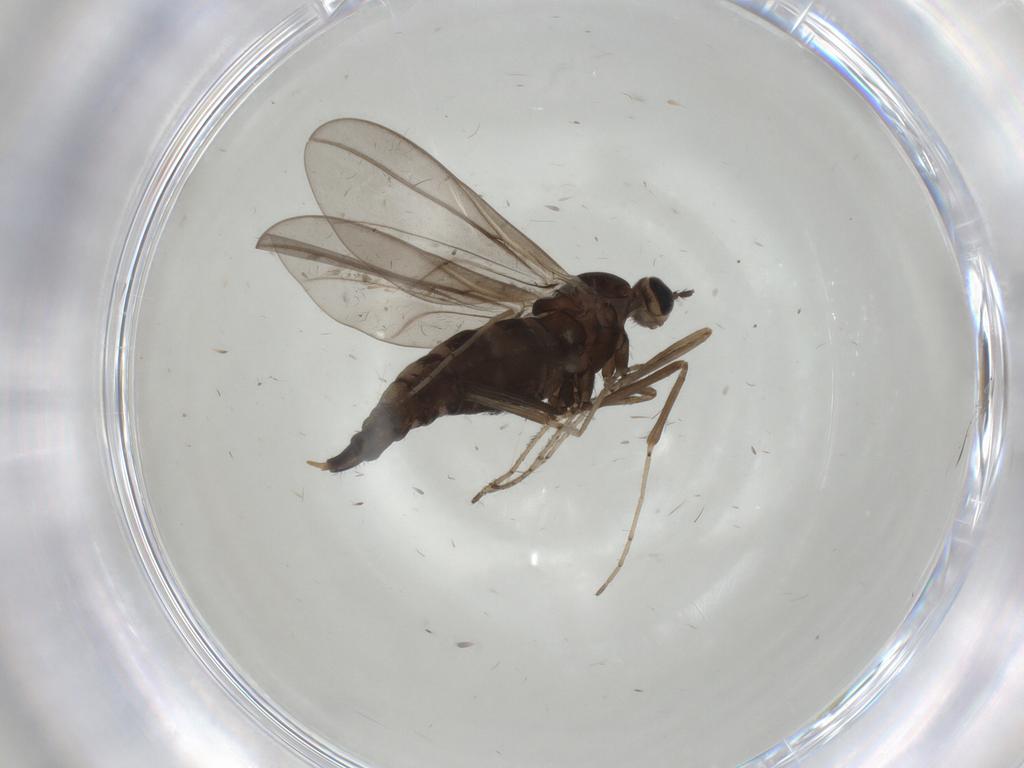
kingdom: Animalia
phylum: Arthropoda
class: Insecta
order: Diptera
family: Cecidomyiidae
